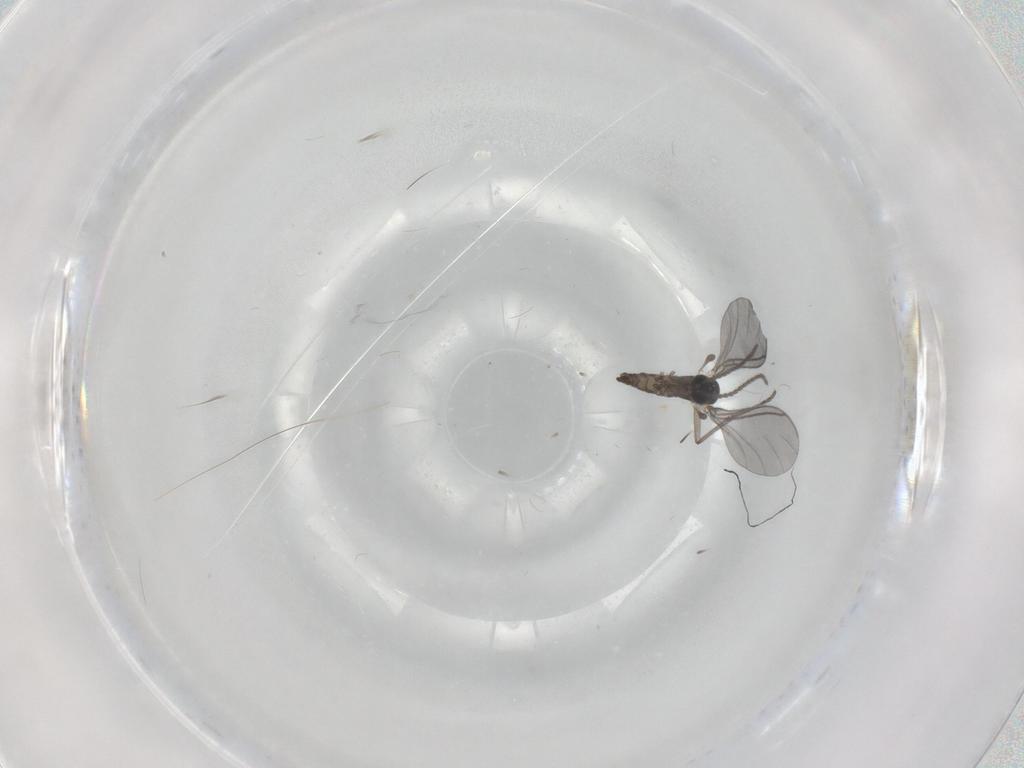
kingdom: Animalia
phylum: Arthropoda
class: Insecta
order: Diptera
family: Sciaridae
